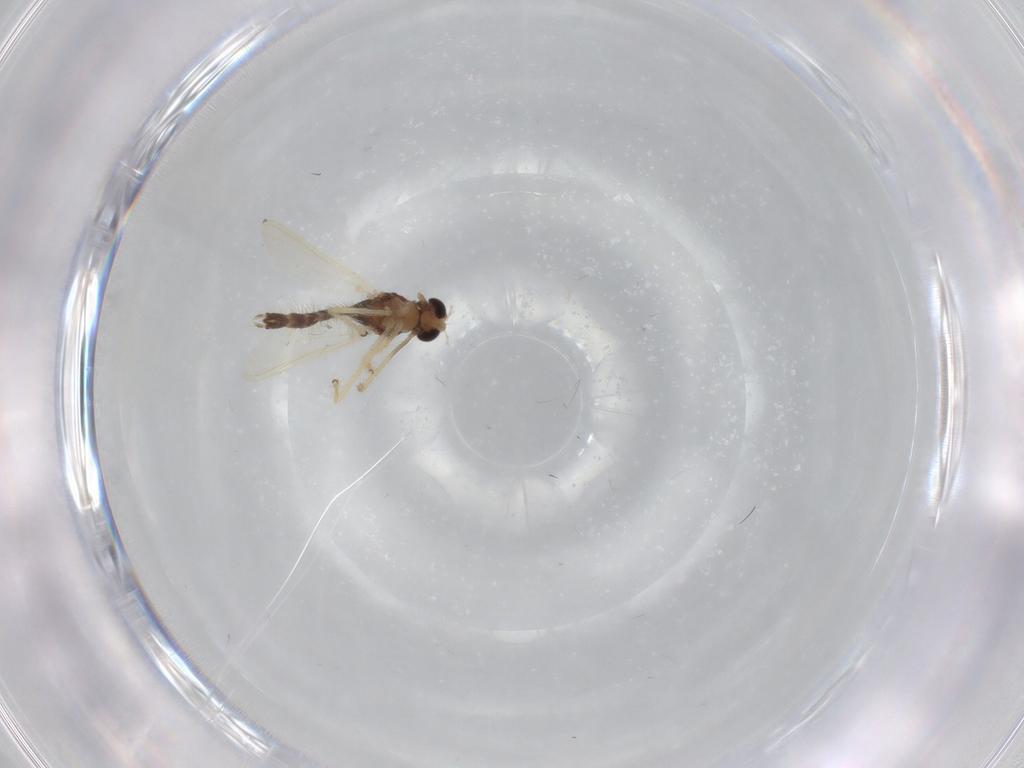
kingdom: Animalia
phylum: Arthropoda
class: Insecta
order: Diptera
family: Chironomidae
